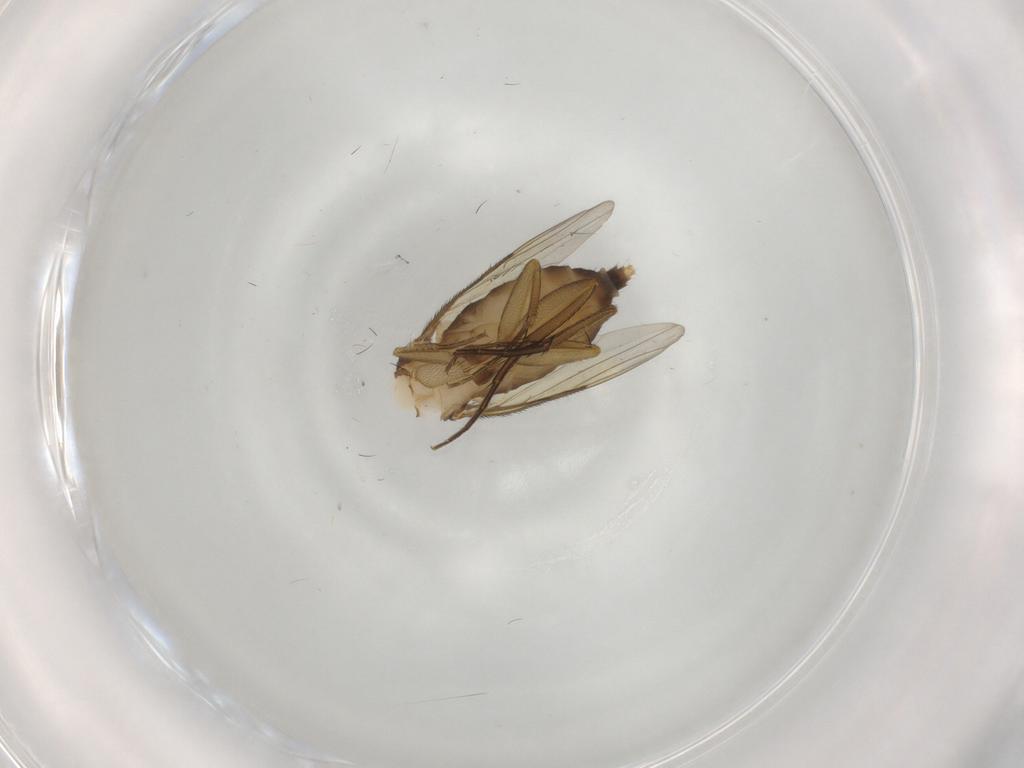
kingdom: Animalia
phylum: Arthropoda
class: Insecta
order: Diptera
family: Phoridae
